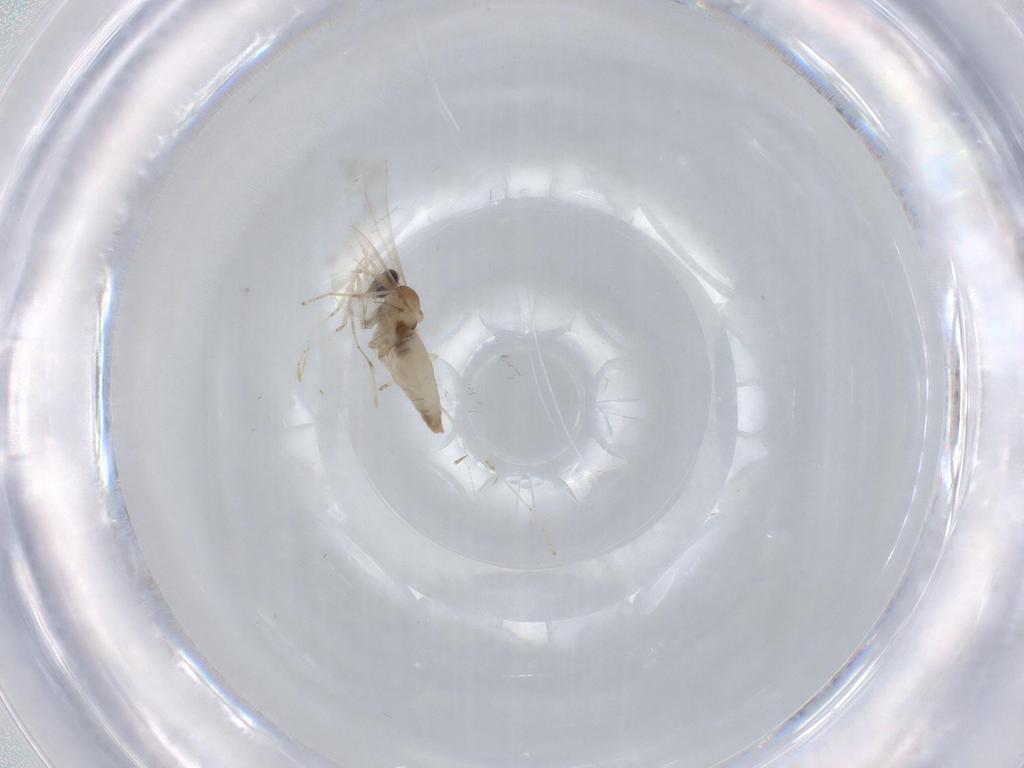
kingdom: Animalia
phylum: Arthropoda
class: Insecta
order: Diptera
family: Cecidomyiidae
